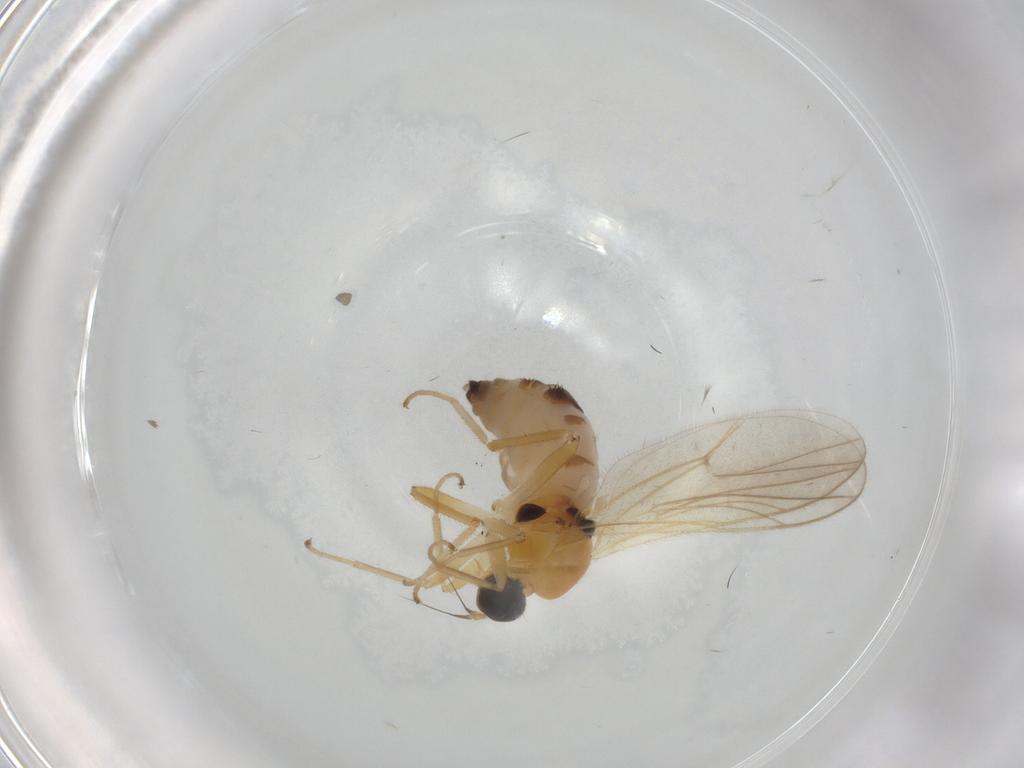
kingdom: Animalia
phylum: Arthropoda
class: Insecta
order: Diptera
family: Hybotidae
